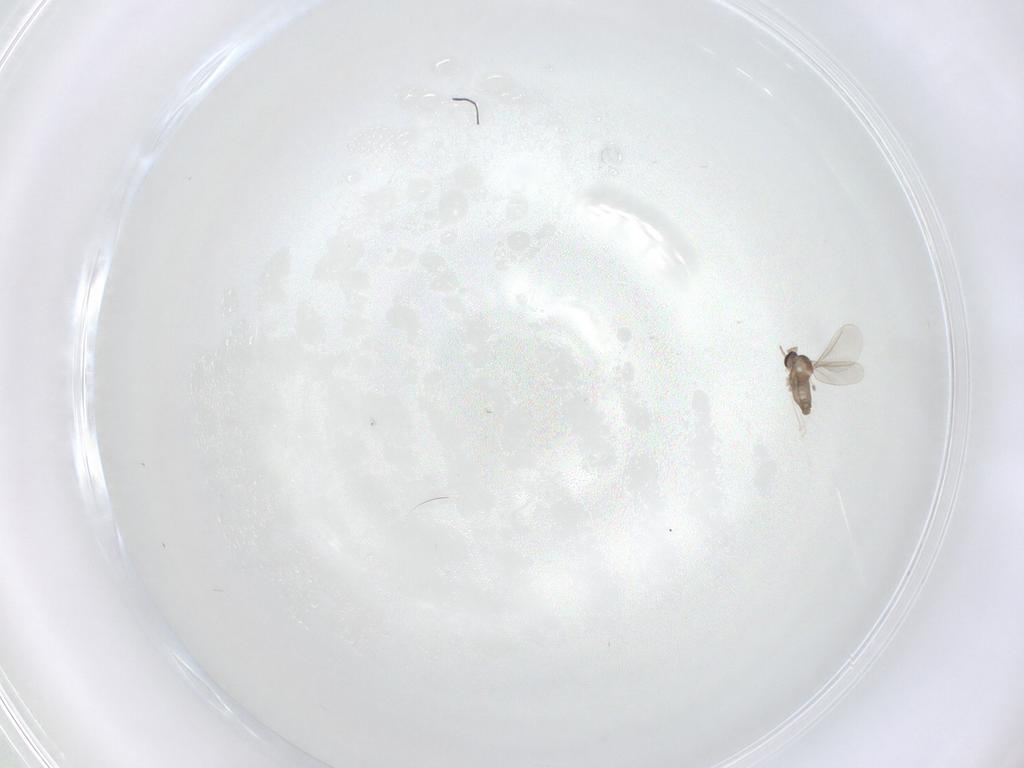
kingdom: Animalia
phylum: Arthropoda
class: Insecta
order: Diptera
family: Cecidomyiidae
